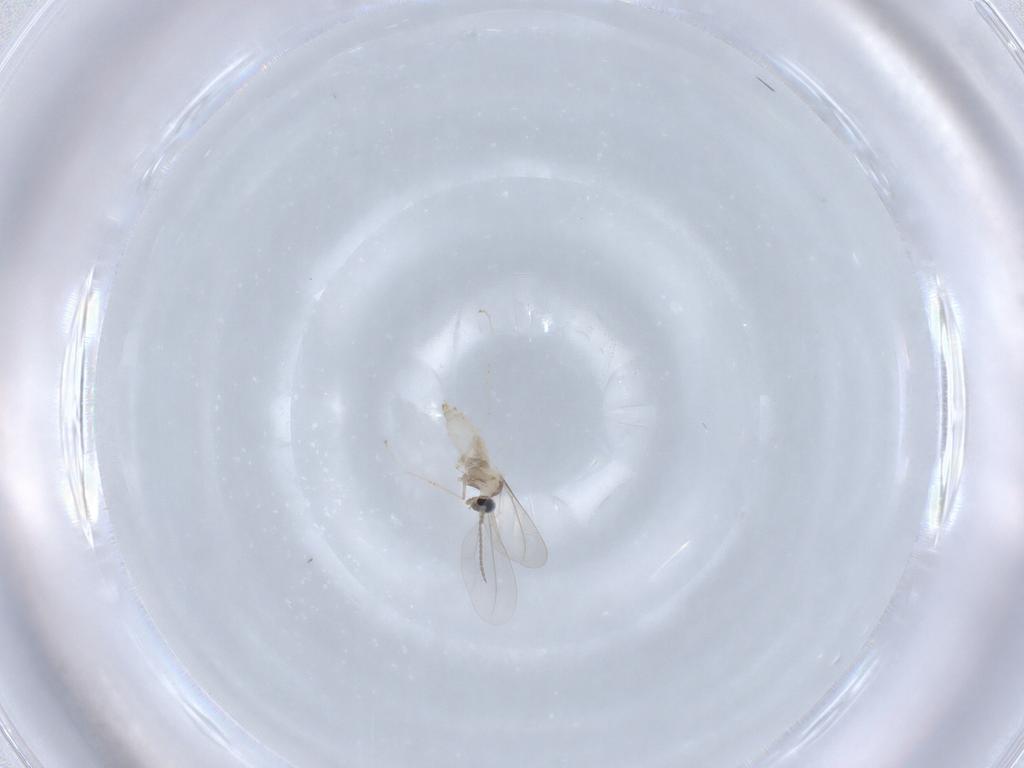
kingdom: Animalia
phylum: Arthropoda
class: Insecta
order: Diptera
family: Cecidomyiidae
